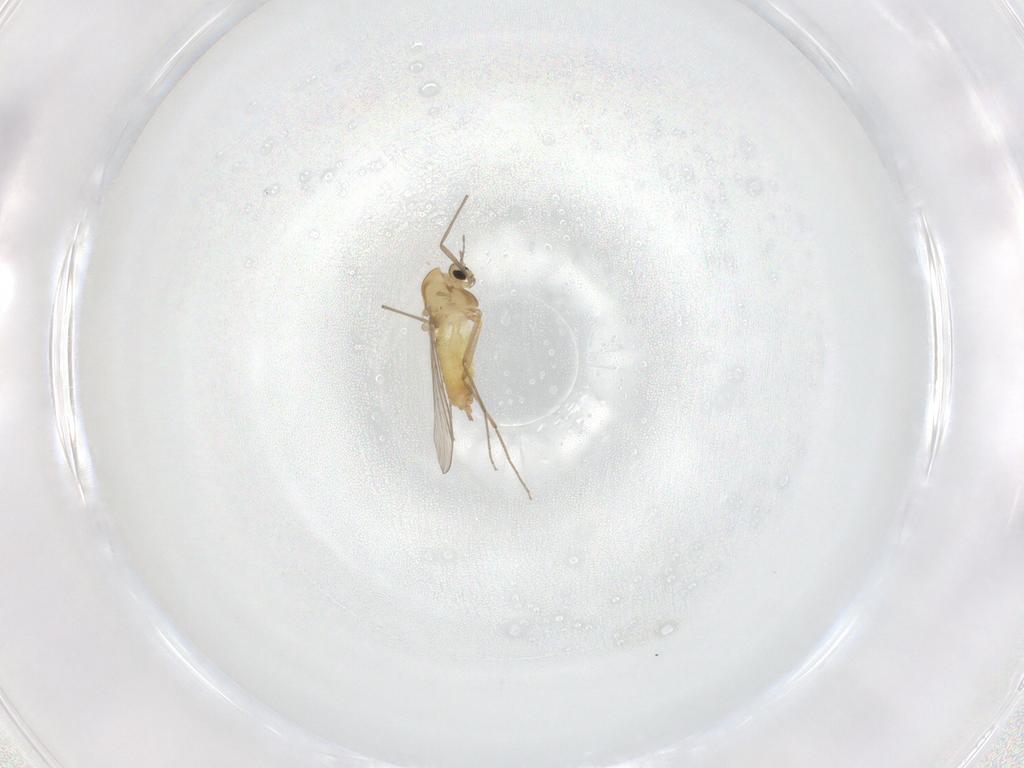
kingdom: Animalia
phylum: Arthropoda
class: Insecta
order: Diptera
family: Chironomidae
